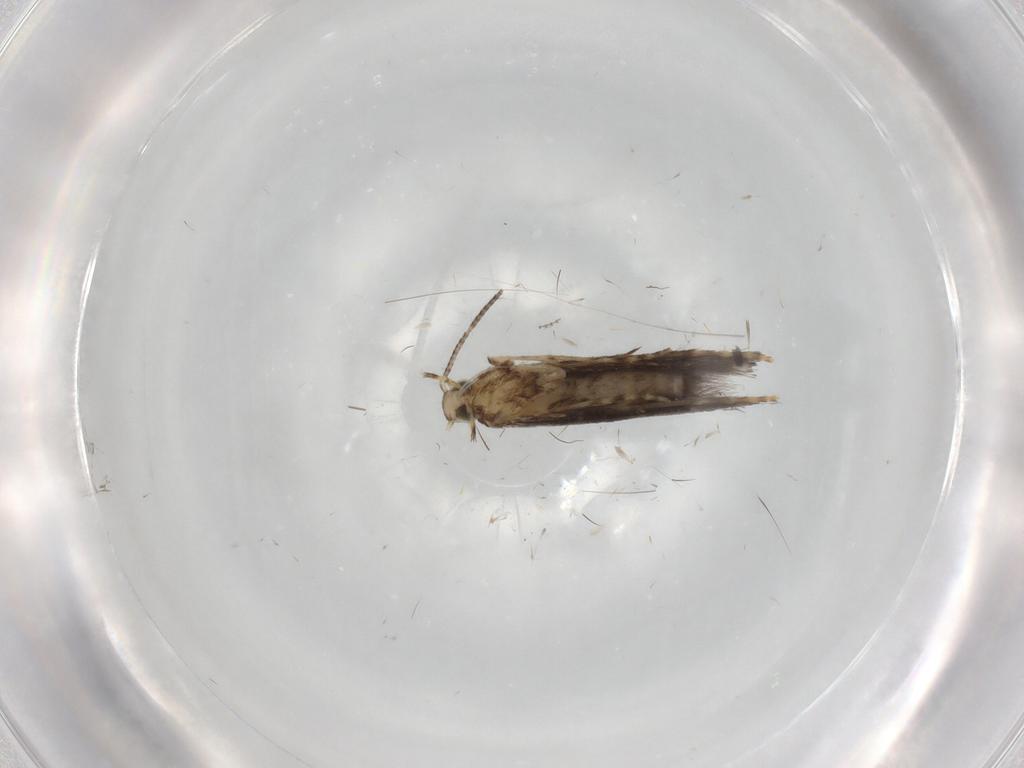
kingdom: Animalia
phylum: Arthropoda
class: Insecta
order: Lepidoptera
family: Gracillariidae
